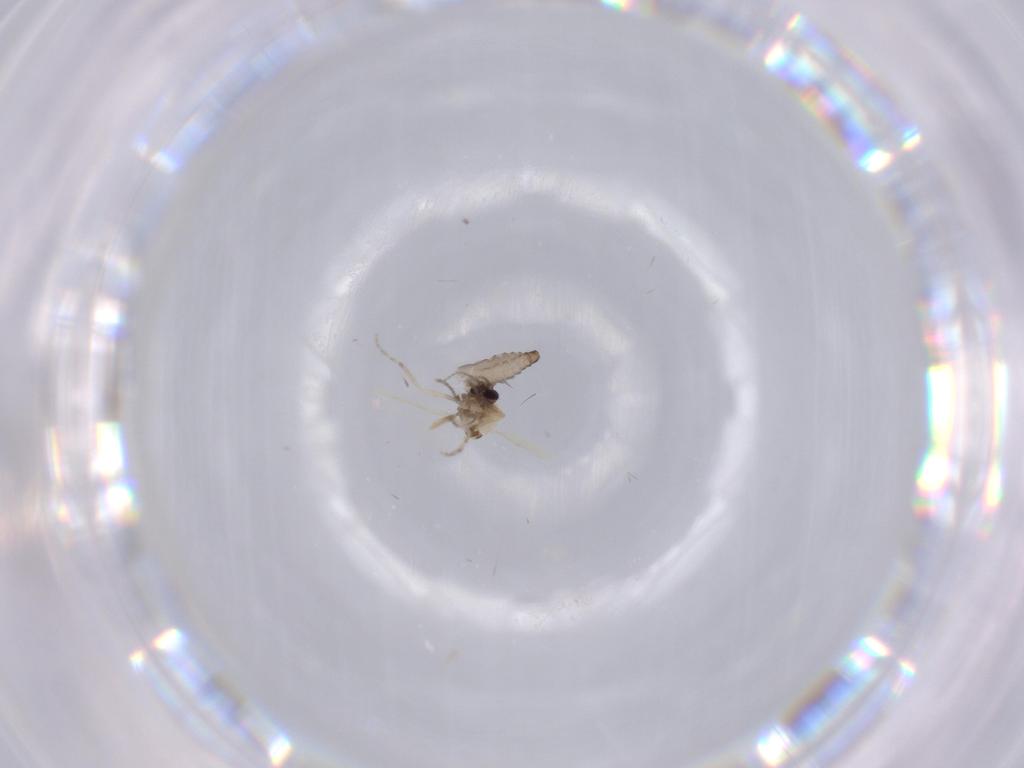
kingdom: Animalia
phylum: Arthropoda
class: Insecta
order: Diptera
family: Ceratopogonidae
